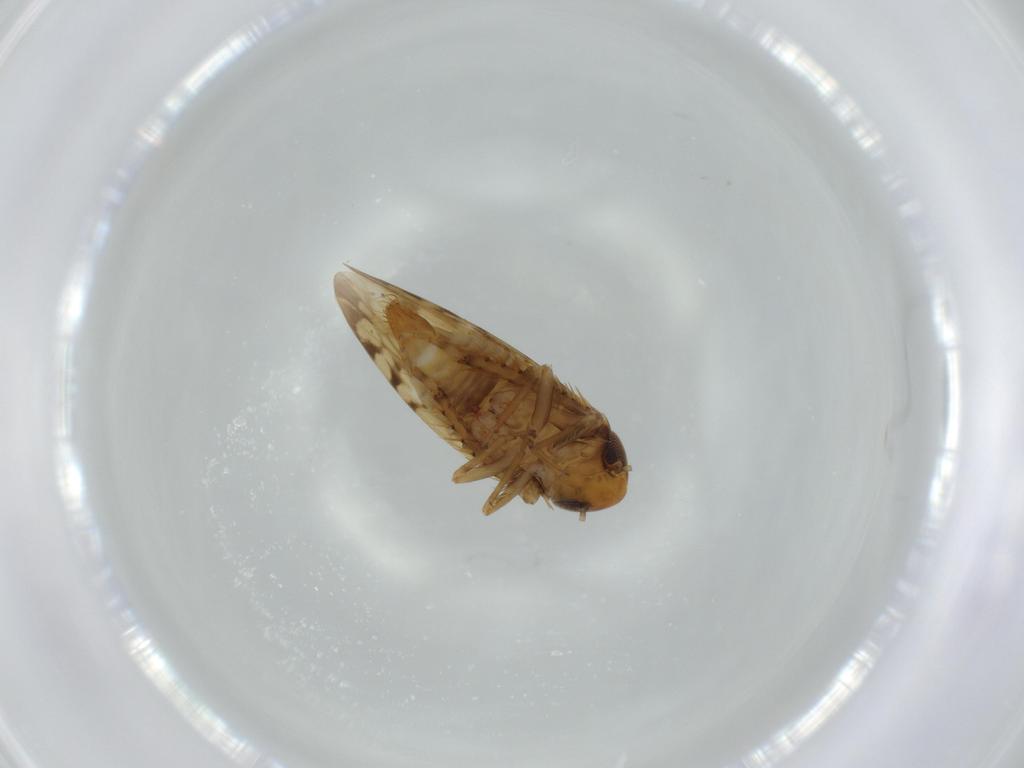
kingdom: Animalia
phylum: Arthropoda
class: Insecta
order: Hemiptera
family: Cicadellidae
